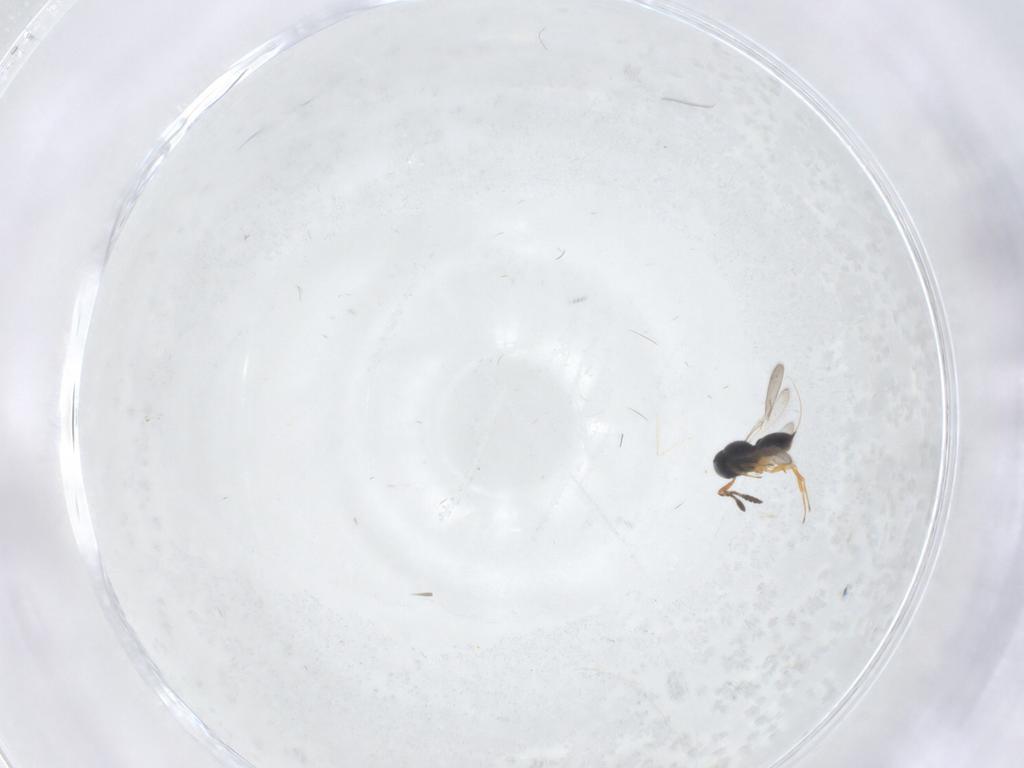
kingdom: Animalia
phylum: Arthropoda
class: Insecta
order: Hymenoptera
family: Scelionidae
